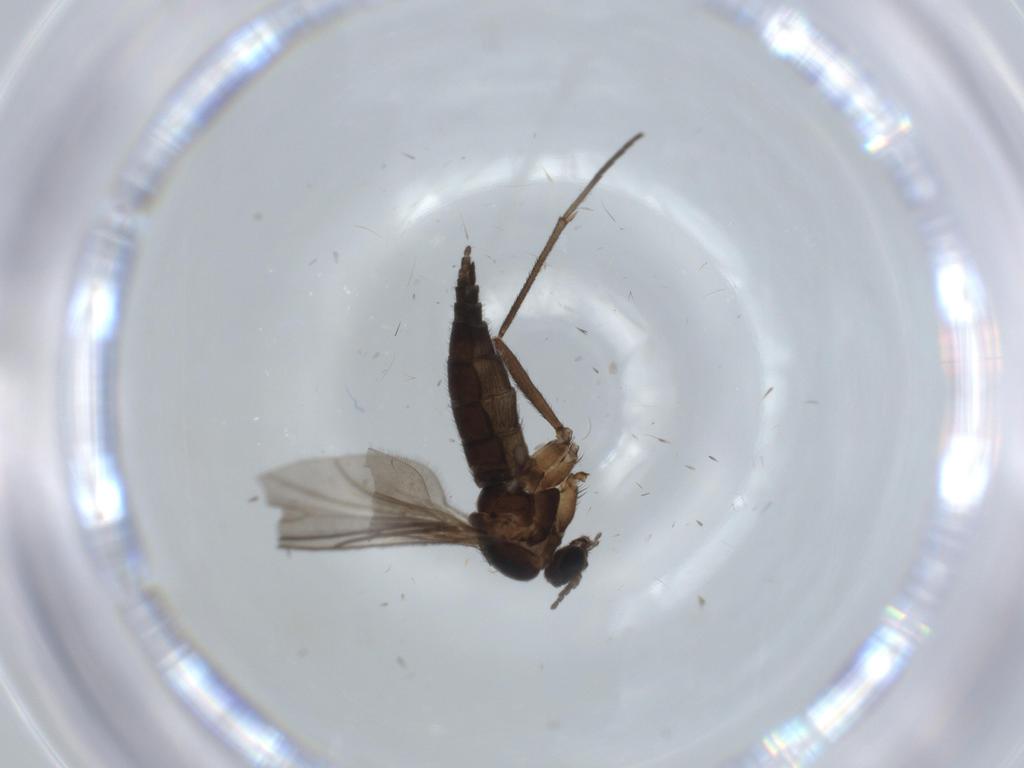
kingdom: Animalia
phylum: Arthropoda
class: Insecta
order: Diptera
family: Sciaridae
